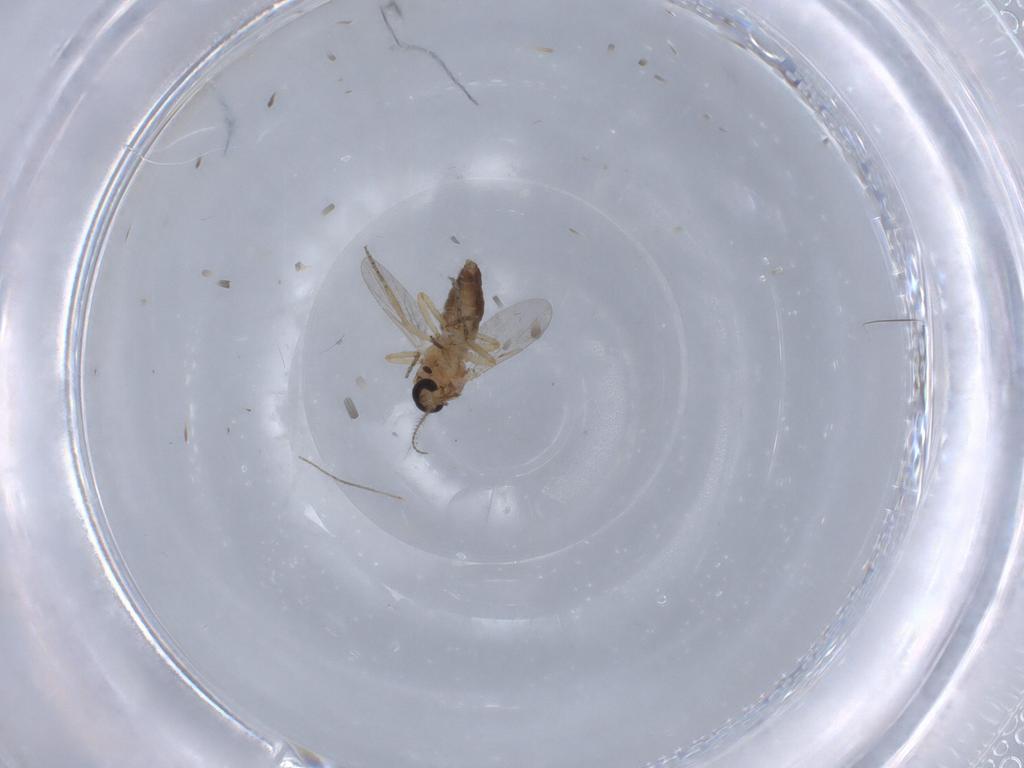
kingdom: Animalia
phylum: Arthropoda
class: Insecta
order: Diptera
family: Ceratopogonidae
